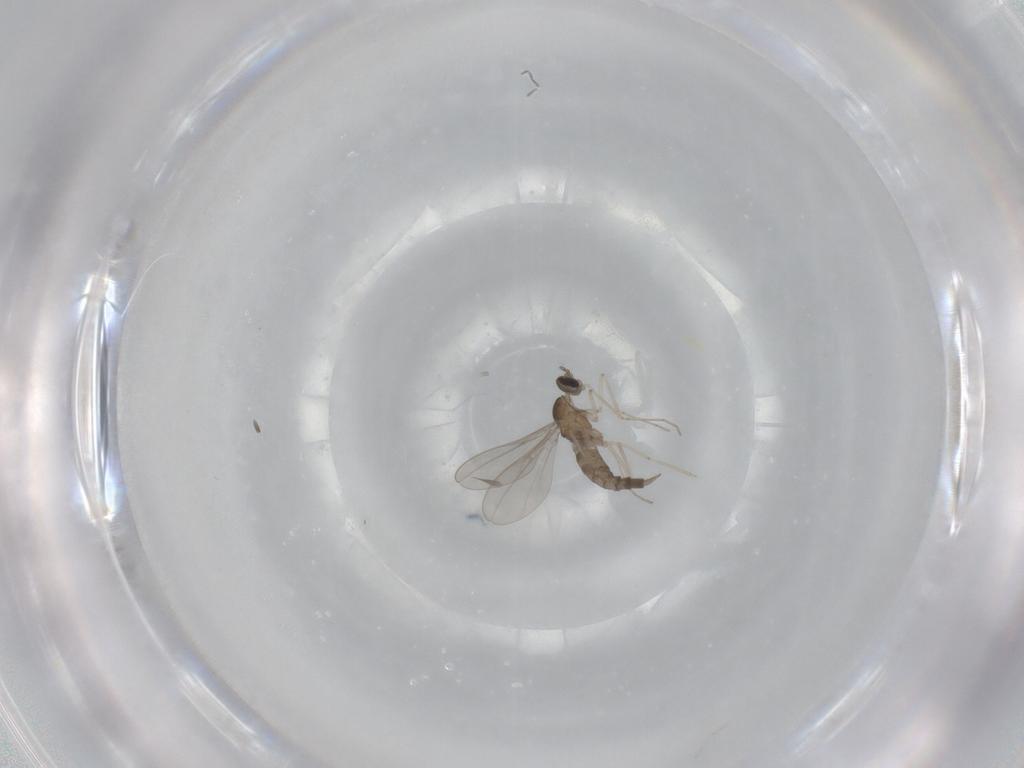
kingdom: Animalia
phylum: Arthropoda
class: Insecta
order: Diptera
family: Cecidomyiidae
